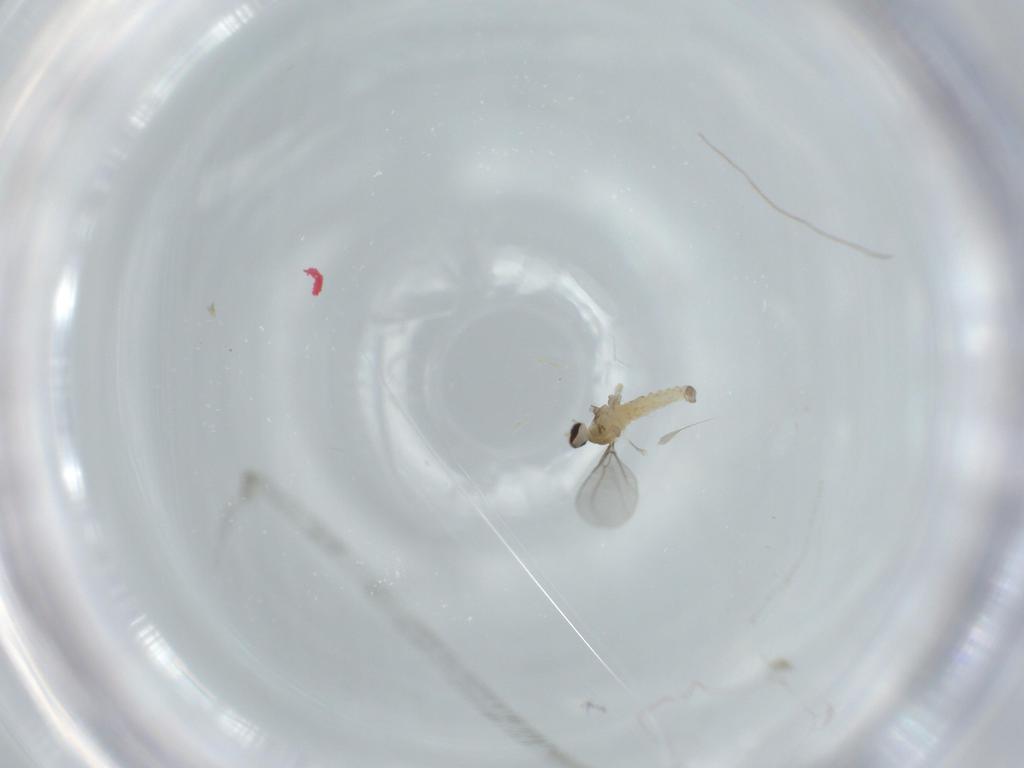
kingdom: Animalia
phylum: Arthropoda
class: Insecta
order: Diptera
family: Cecidomyiidae
